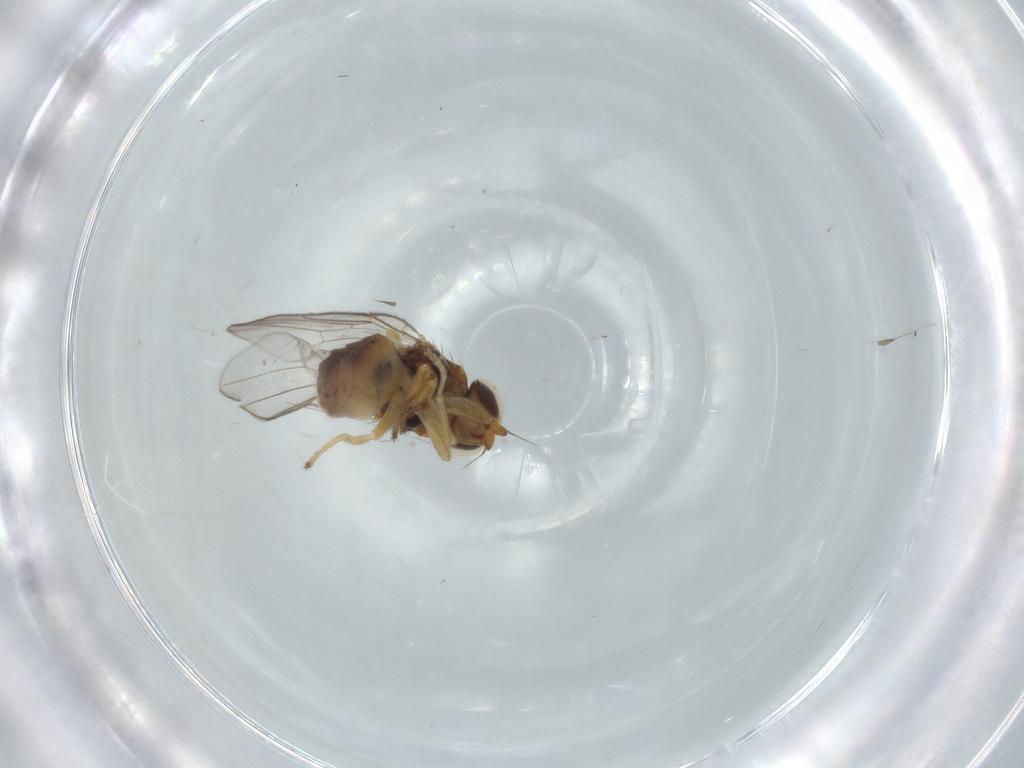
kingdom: Animalia
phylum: Arthropoda
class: Insecta
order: Diptera
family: Chloropidae
